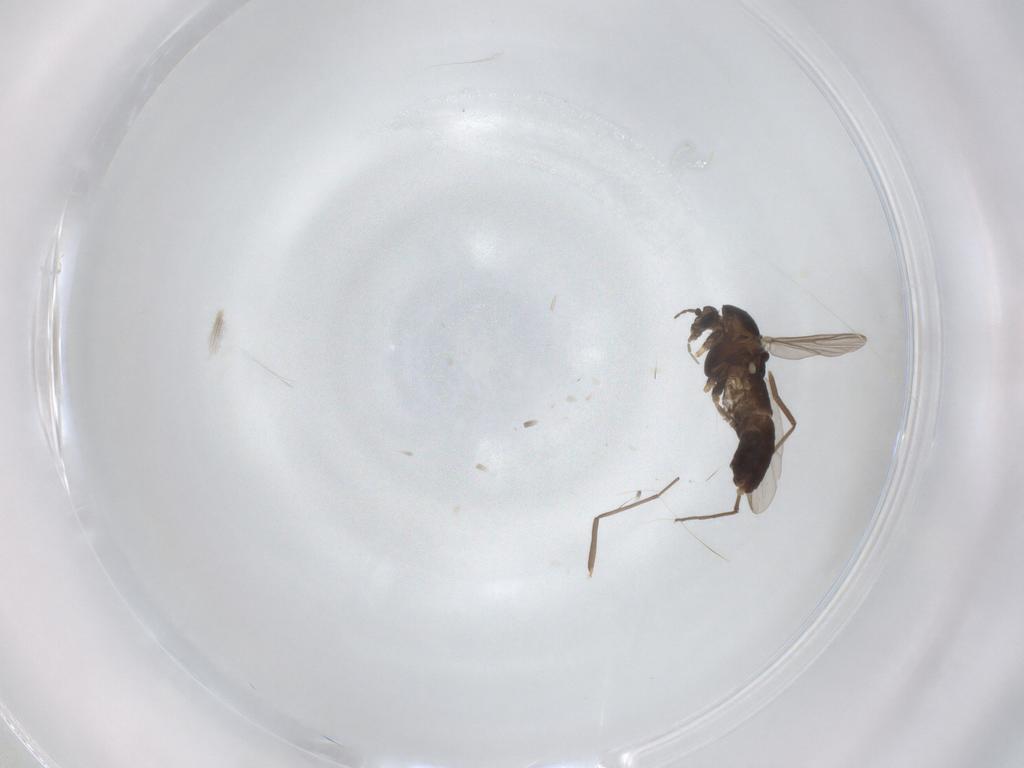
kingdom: Animalia
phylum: Arthropoda
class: Insecta
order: Diptera
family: Chironomidae
